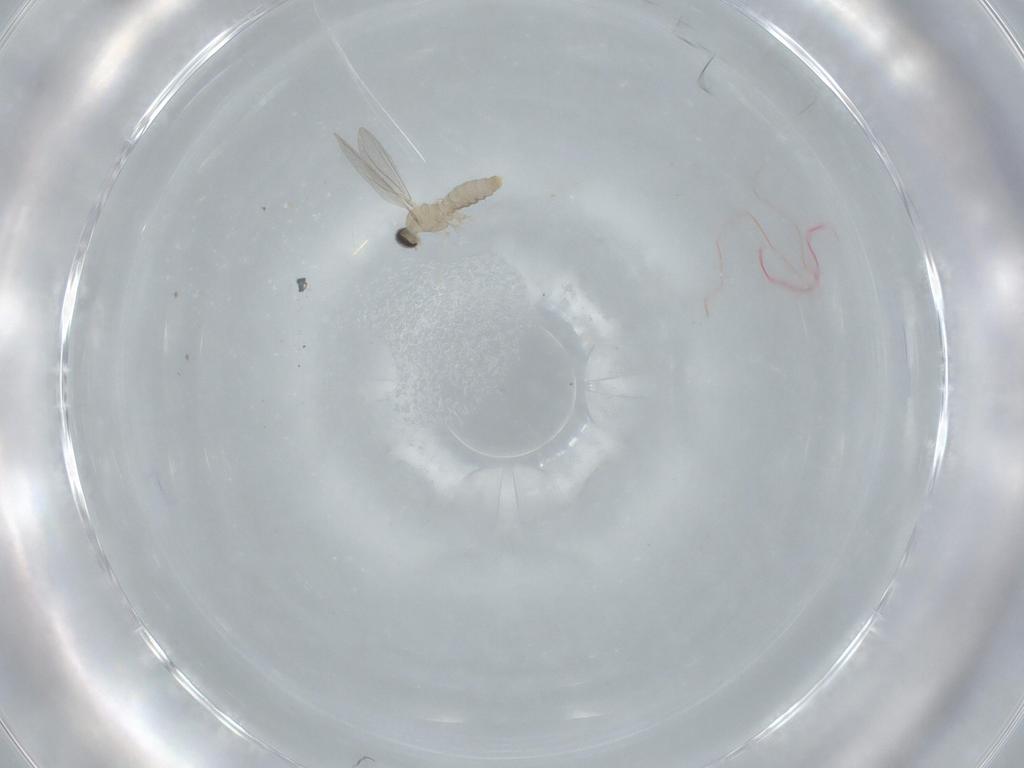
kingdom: Animalia
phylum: Arthropoda
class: Insecta
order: Diptera
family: Cecidomyiidae
